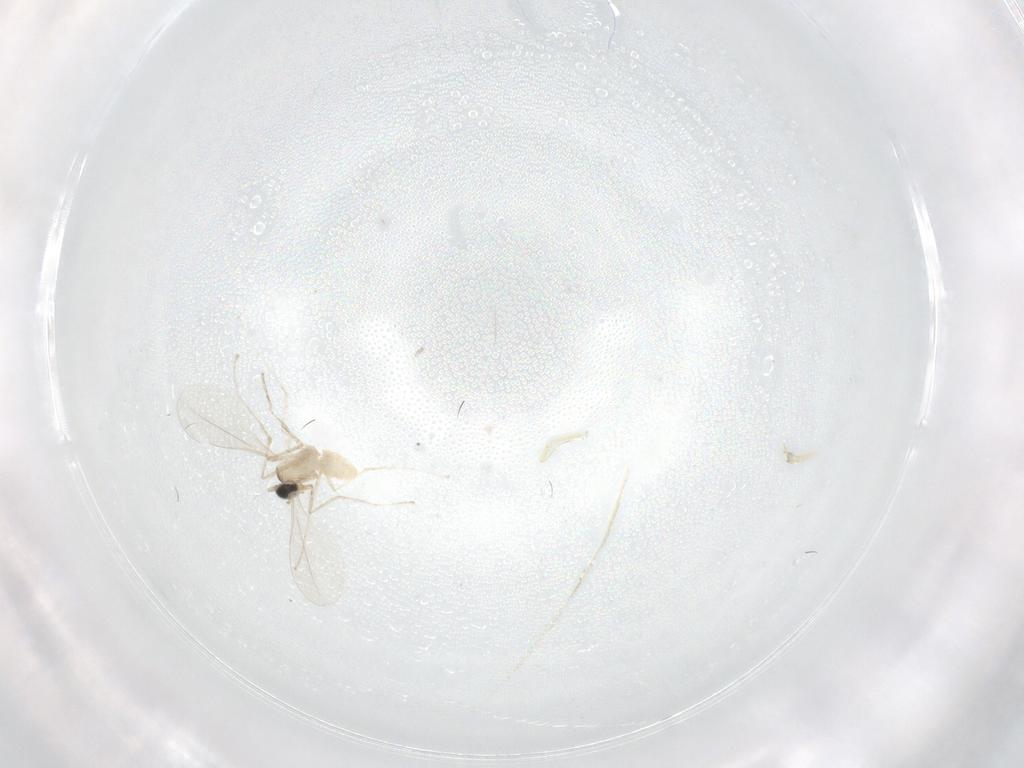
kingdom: Animalia
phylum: Arthropoda
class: Insecta
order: Diptera
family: Cecidomyiidae
